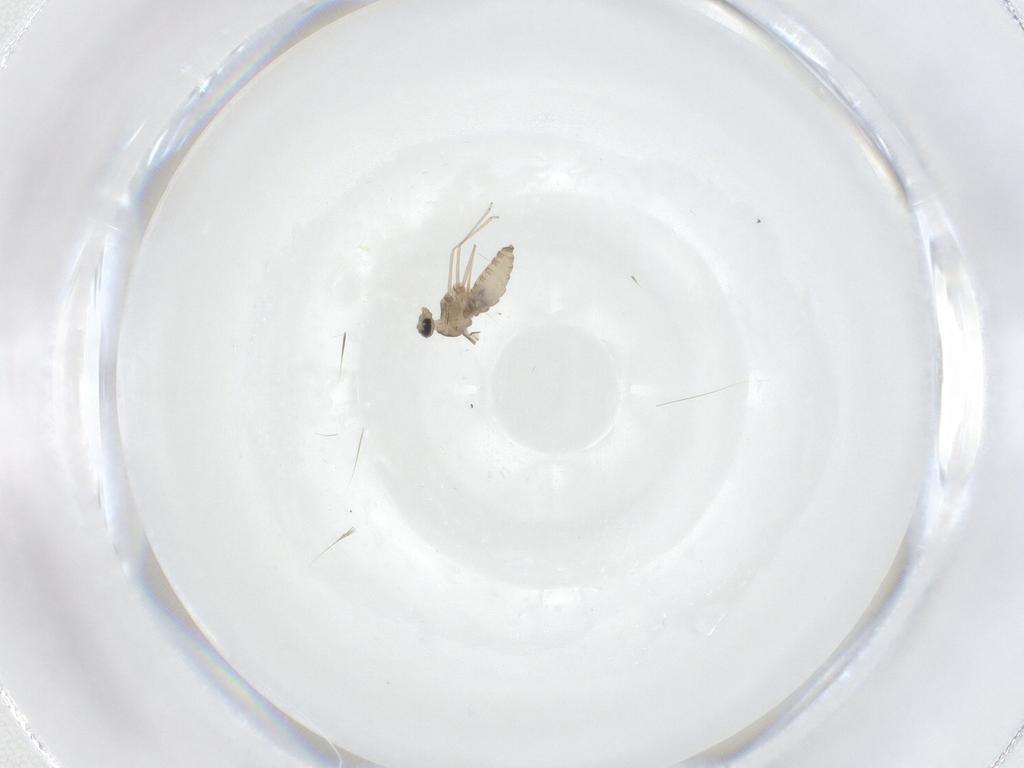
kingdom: Animalia
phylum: Arthropoda
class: Insecta
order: Diptera
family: Cecidomyiidae
